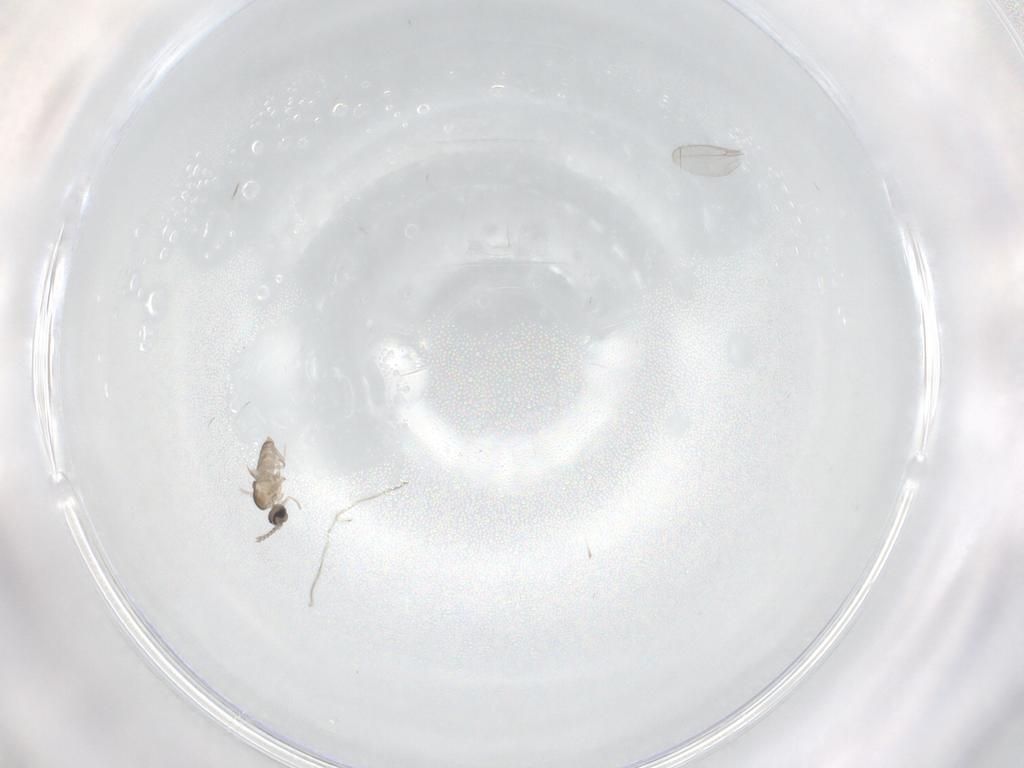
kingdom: Animalia
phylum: Arthropoda
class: Insecta
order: Diptera
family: Cecidomyiidae
